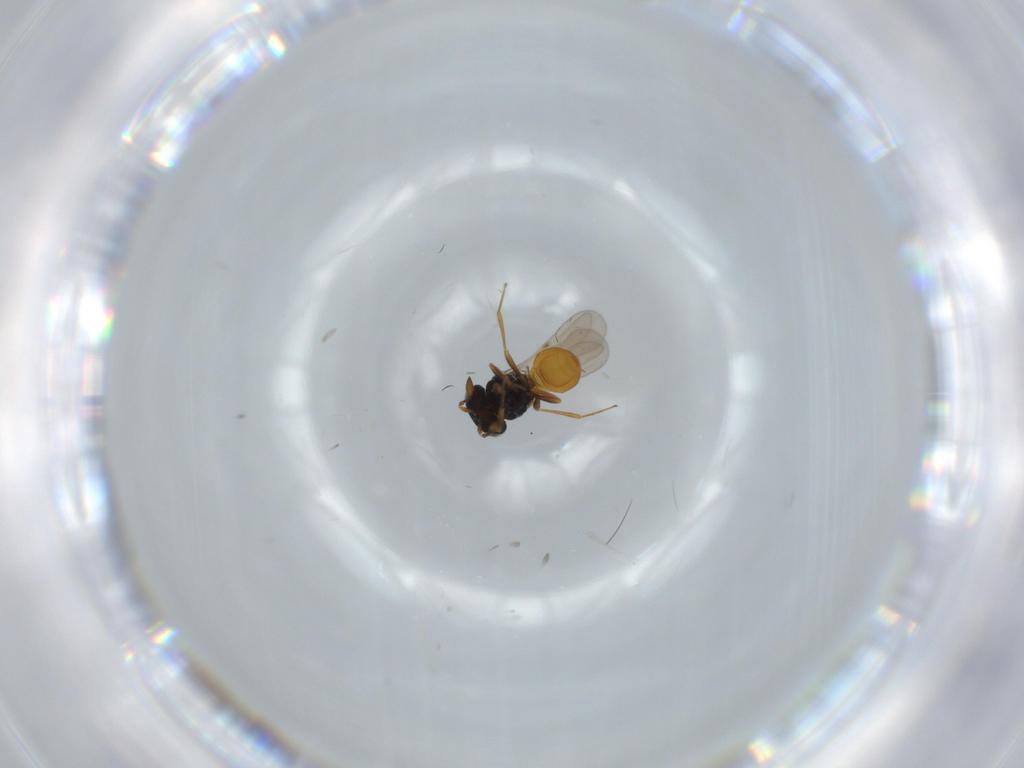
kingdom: Animalia
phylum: Arthropoda
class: Insecta
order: Hymenoptera
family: Scelionidae
